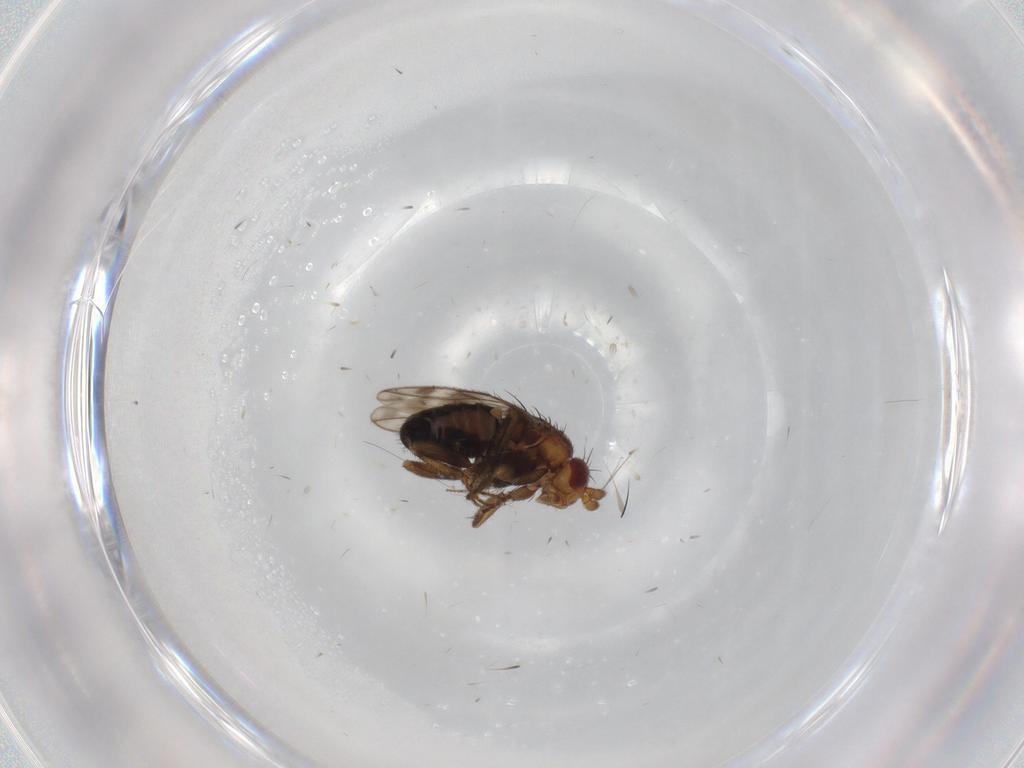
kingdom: Animalia
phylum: Arthropoda
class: Insecta
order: Diptera
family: Sphaeroceridae
